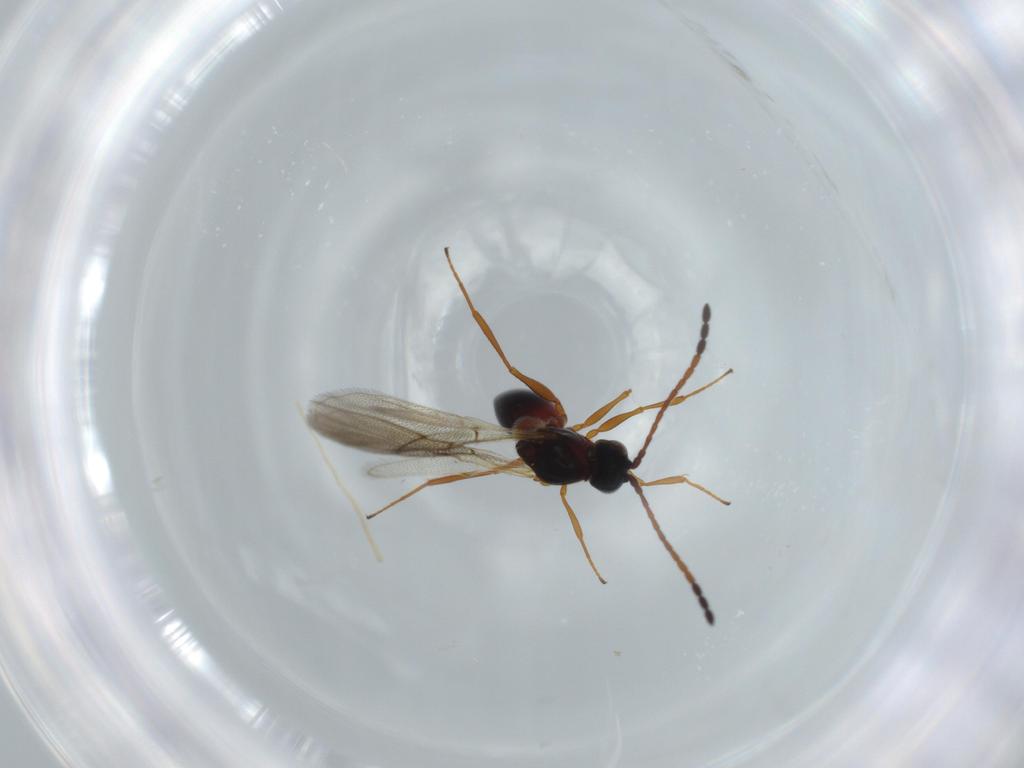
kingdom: Animalia
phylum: Arthropoda
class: Insecta
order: Hymenoptera
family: Figitidae
